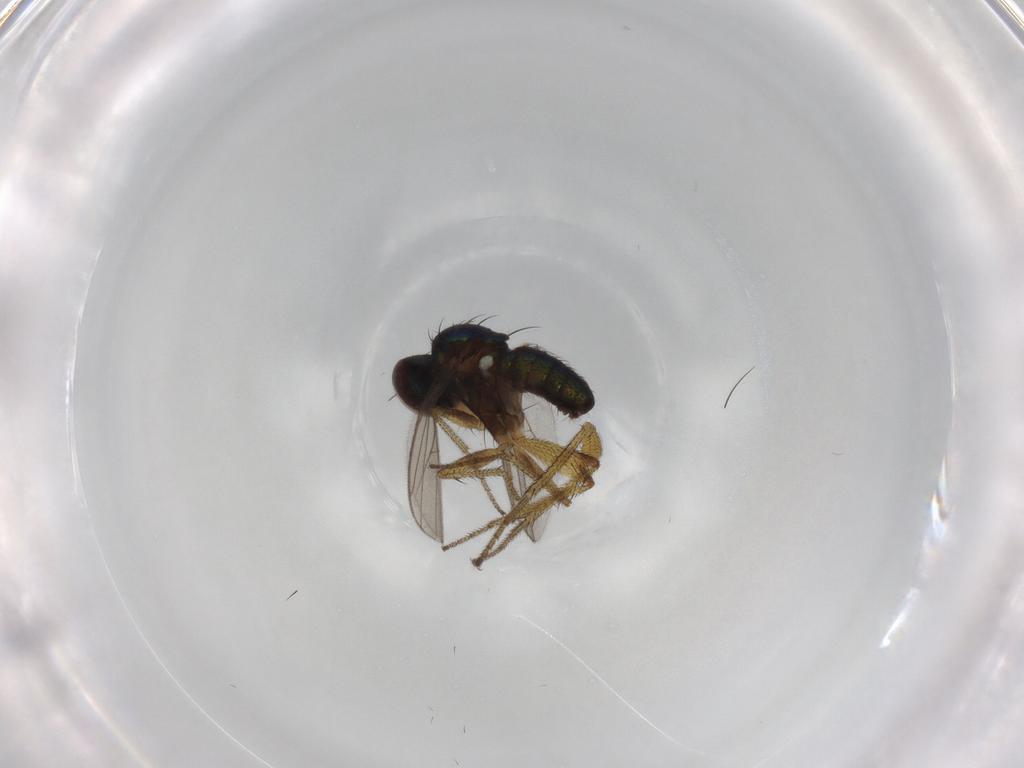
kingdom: Animalia
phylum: Arthropoda
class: Insecta
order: Diptera
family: Dolichopodidae
